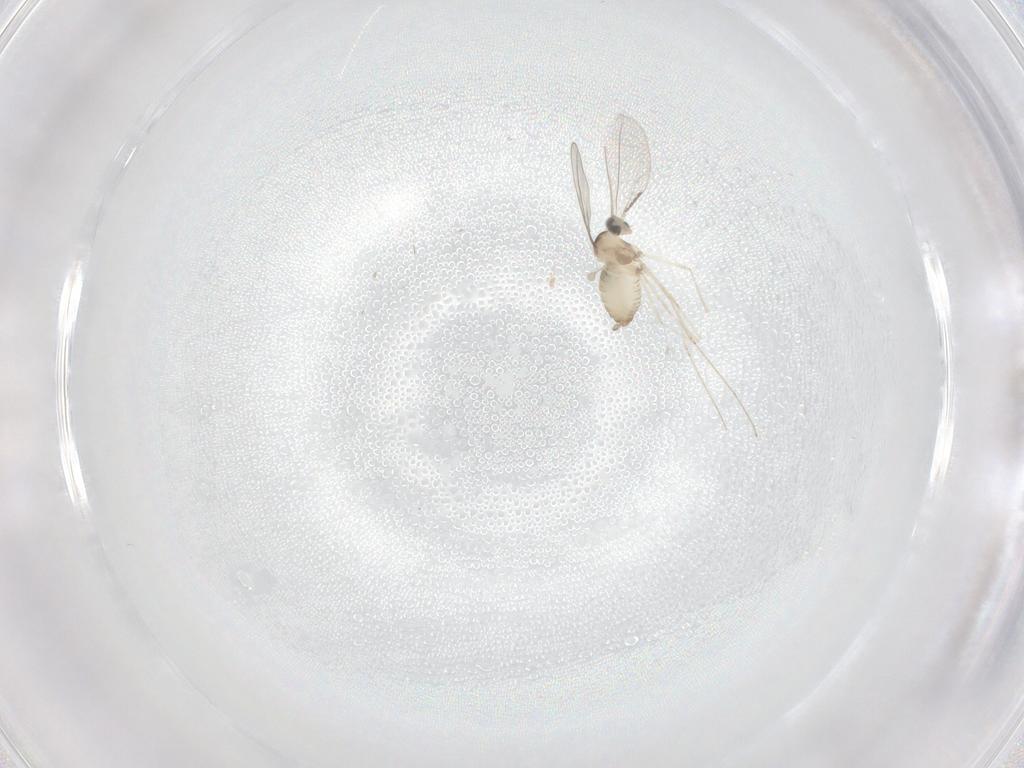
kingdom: Animalia
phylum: Arthropoda
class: Insecta
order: Diptera
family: Cecidomyiidae
